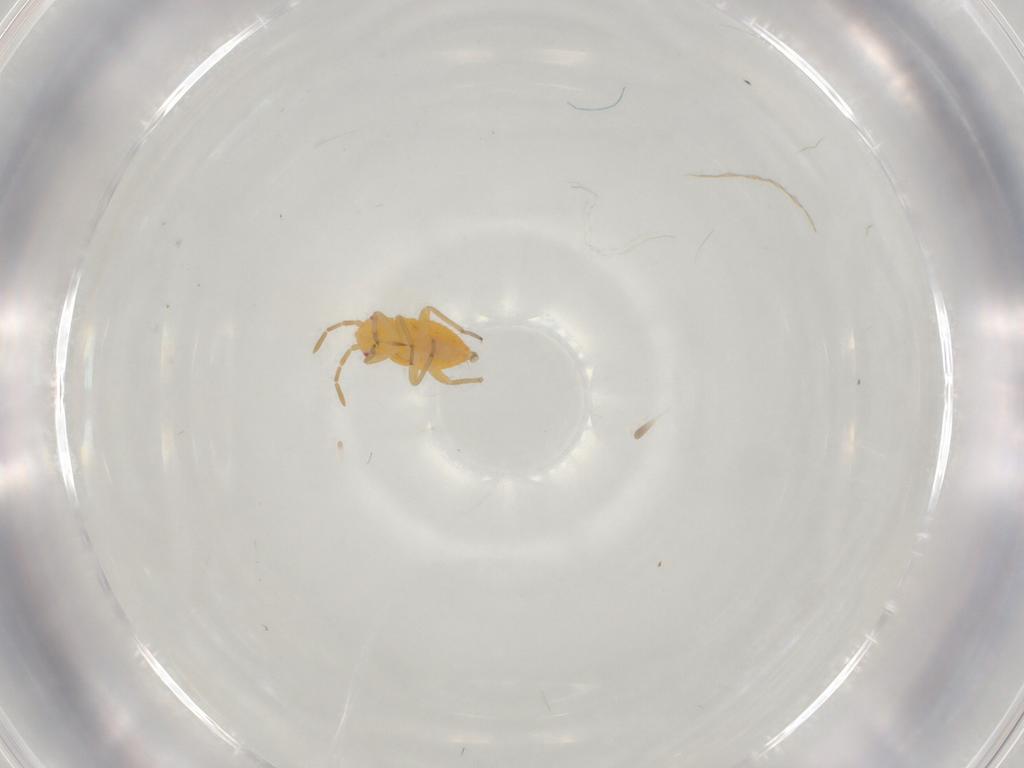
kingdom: Animalia
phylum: Arthropoda
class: Insecta
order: Hemiptera
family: Miridae
